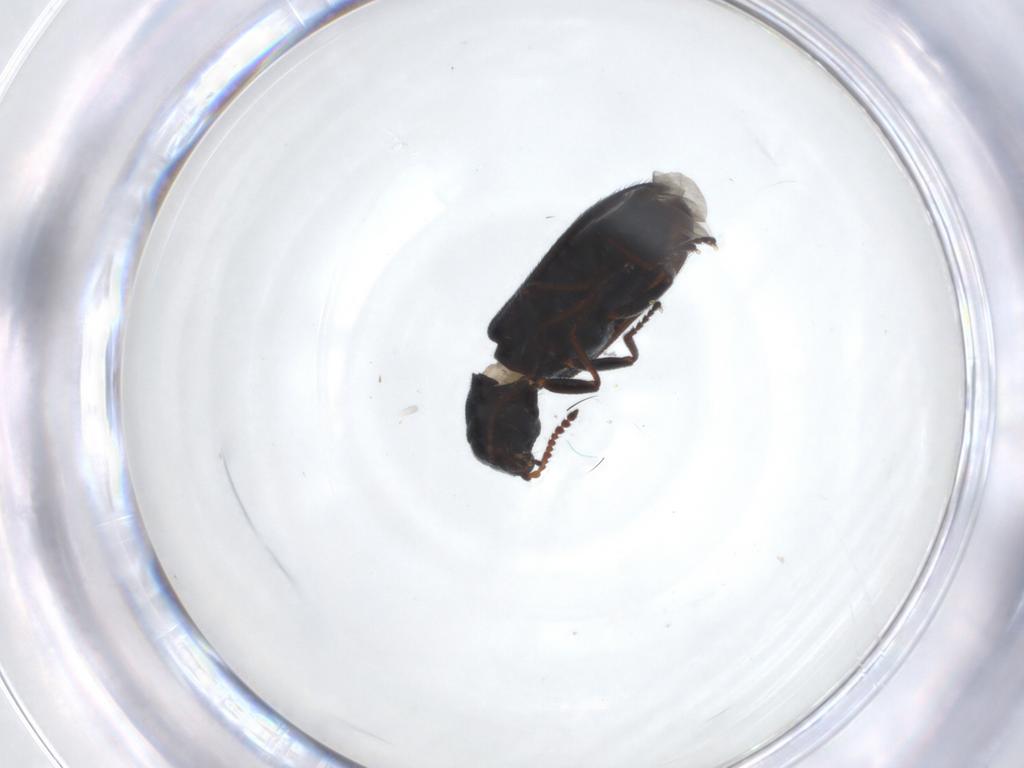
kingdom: Animalia
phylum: Arthropoda
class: Insecta
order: Coleoptera
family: Melyridae
